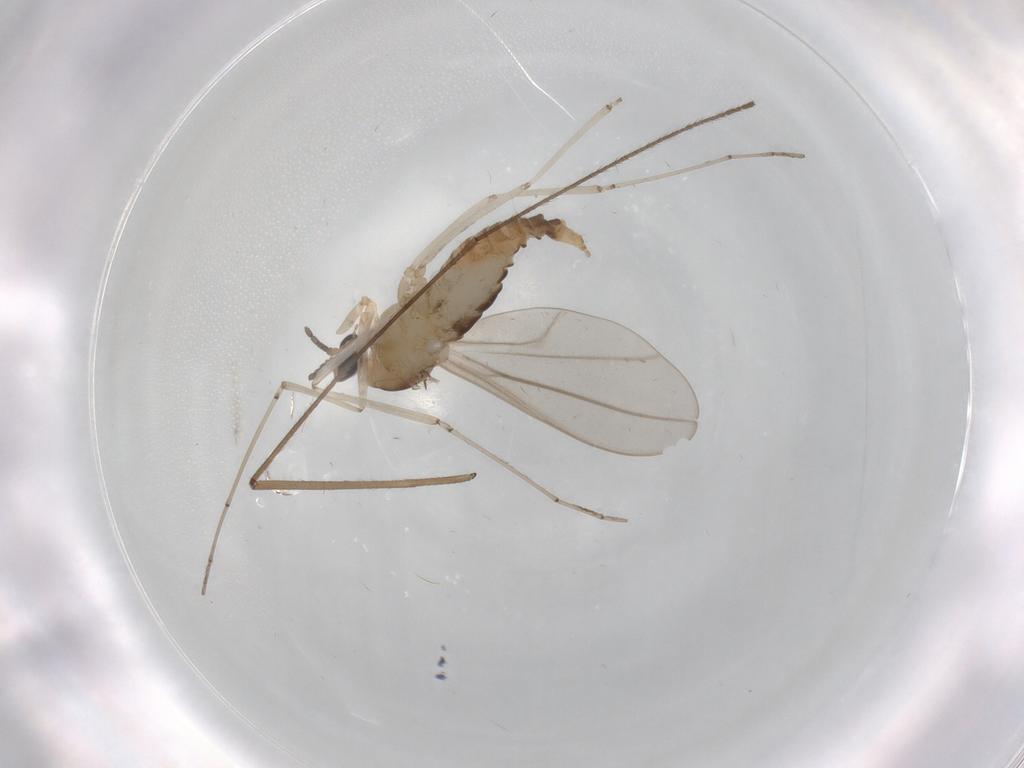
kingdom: Animalia
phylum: Arthropoda
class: Insecta
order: Diptera
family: Cecidomyiidae
